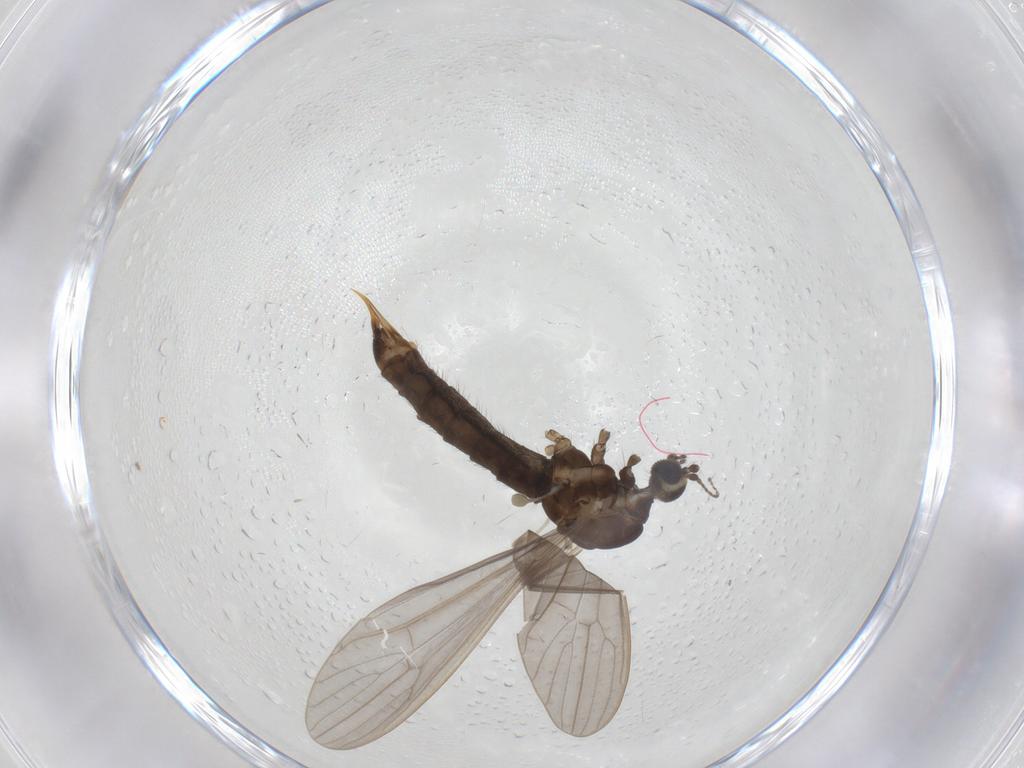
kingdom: Animalia
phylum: Arthropoda
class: Insecta
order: Diptera
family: Limoniidae
